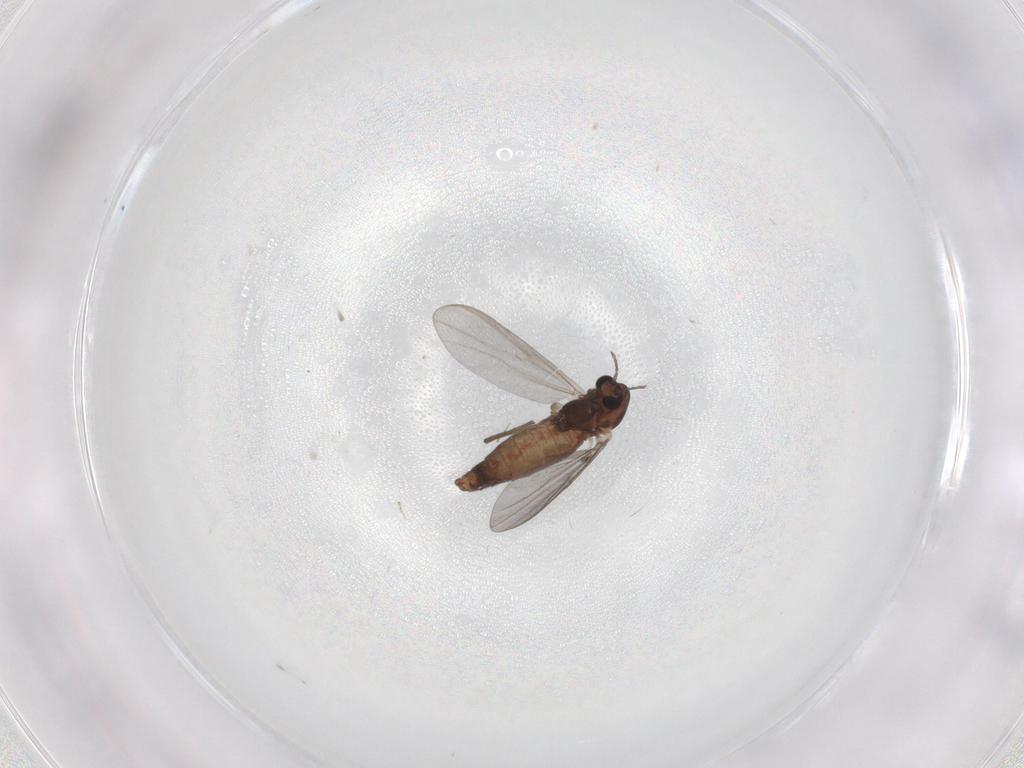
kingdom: Animalia
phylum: Arthropoda
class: Insecta
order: Diptera
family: Chironomidae
